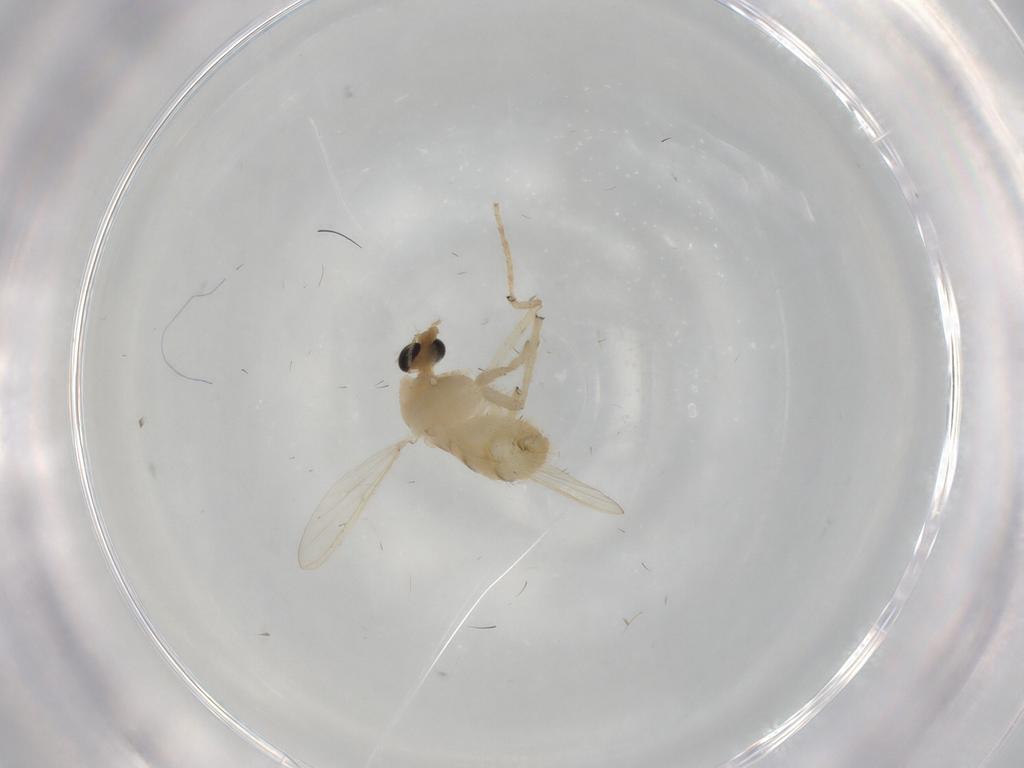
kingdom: Animalia
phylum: Arthropoda
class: Insecta
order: Diptera
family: Chironomidae
